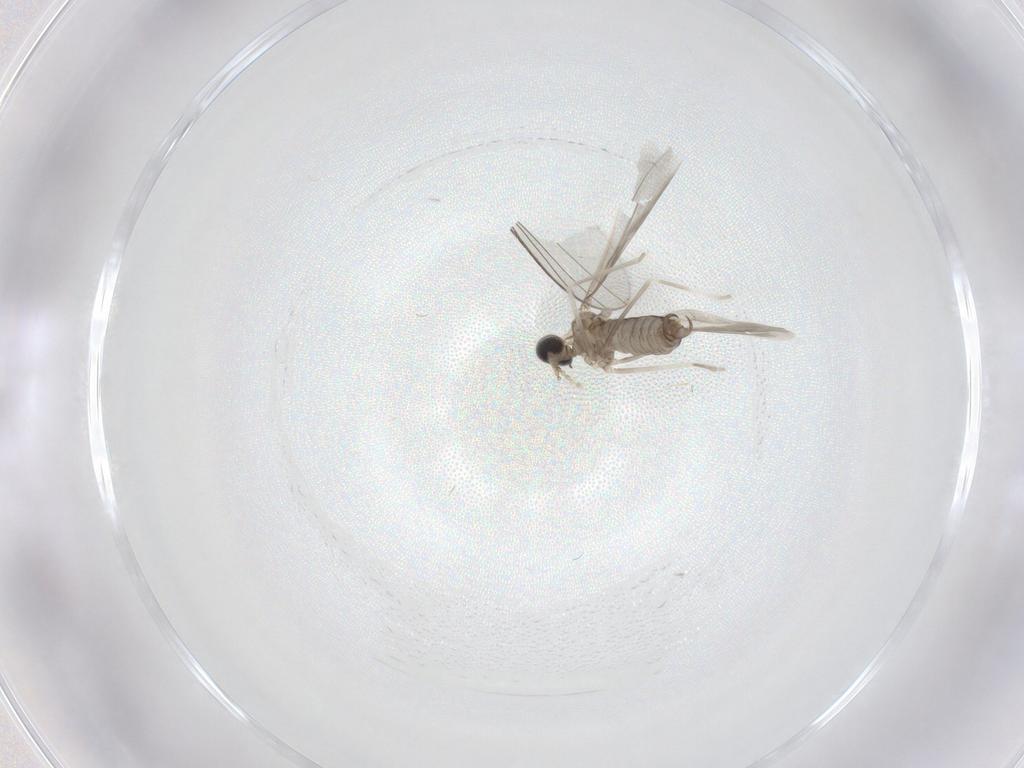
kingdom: Animalia
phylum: Arthropoda
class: Insecta
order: Diptera
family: Cecidomyiidae
